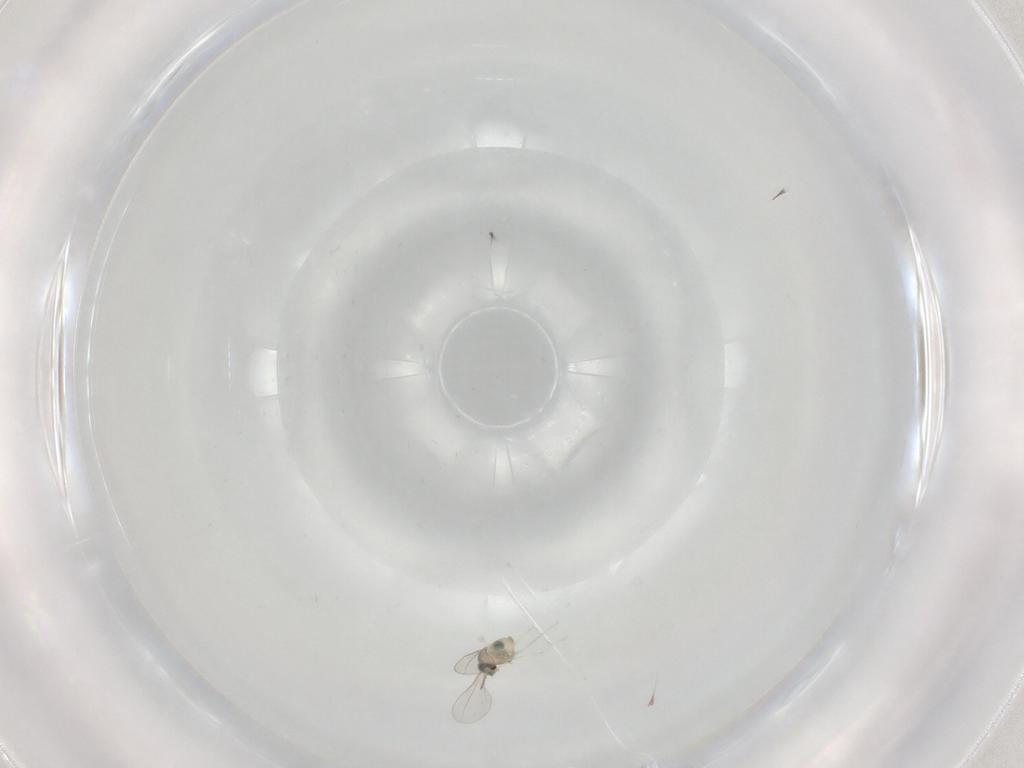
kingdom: Animalia
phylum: Arthropoda
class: Insecta
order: Diptera
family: Cecidomyiidae
